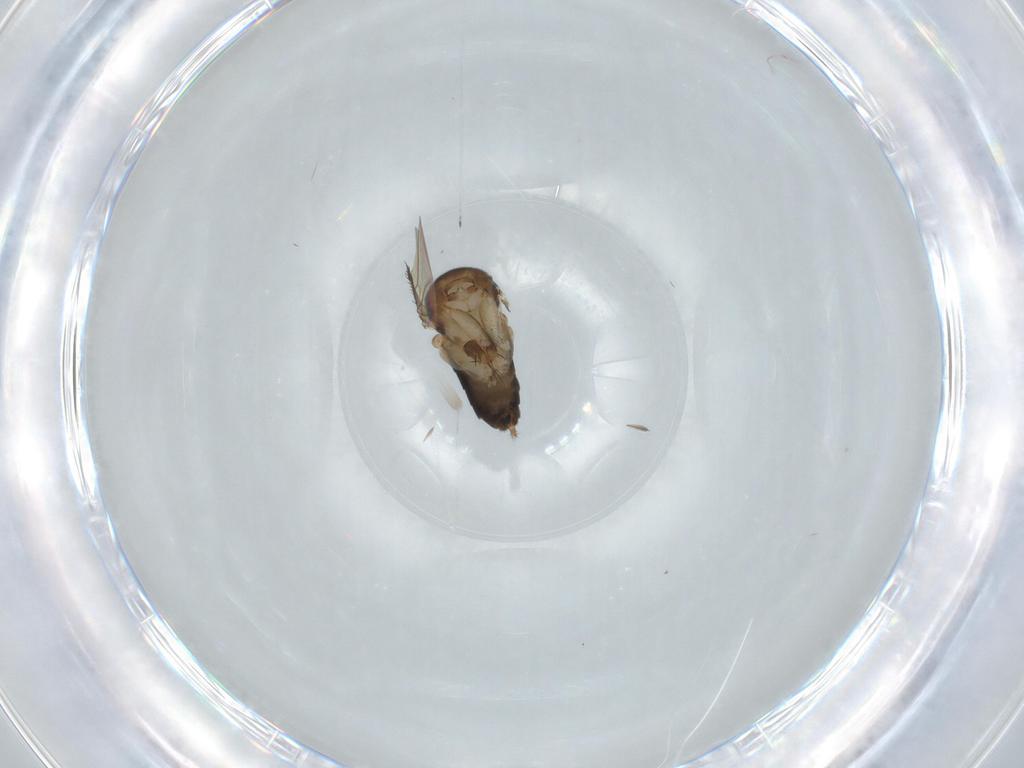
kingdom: Animalia
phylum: Arthropoda
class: Insecta
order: Diptera
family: Phoridae
